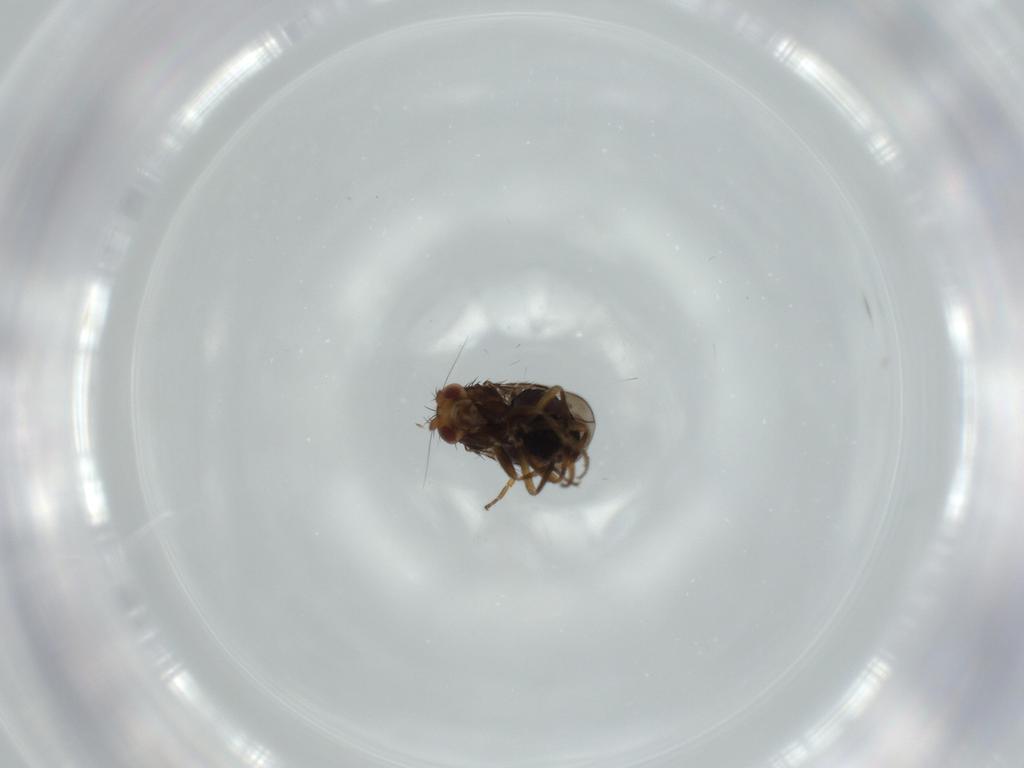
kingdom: Animalia
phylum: Arthropoda
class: Insecta
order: Diptera
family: Sphaeroceridae
